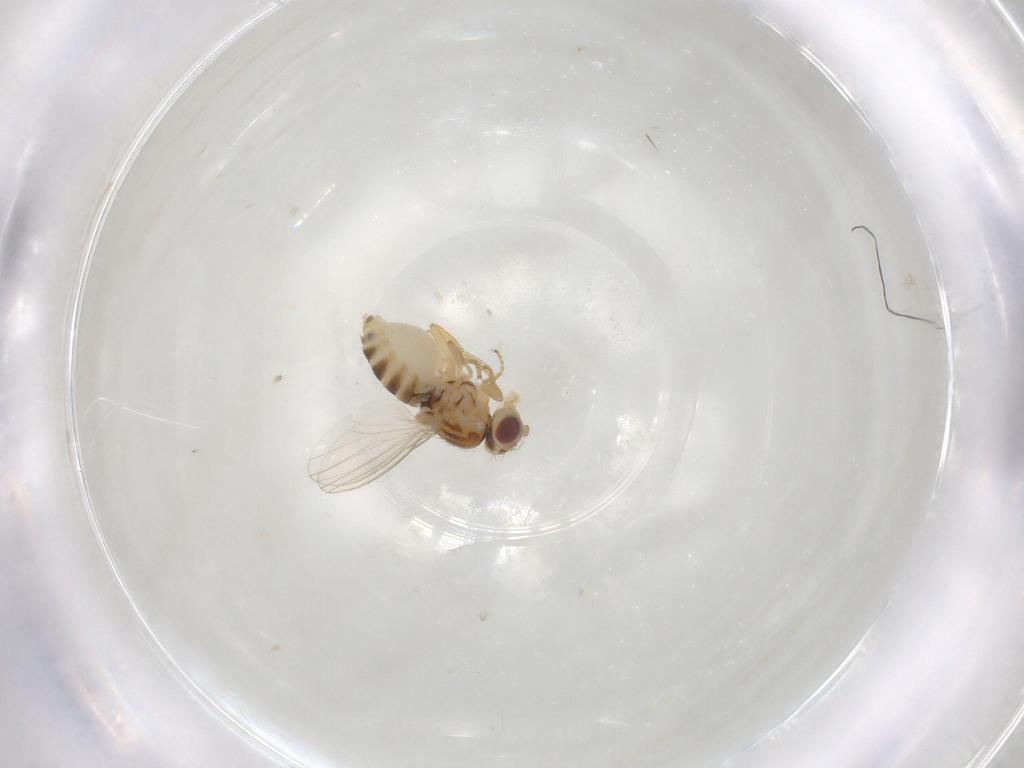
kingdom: Animalia
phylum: Arthropoda
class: Insecta
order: Diptera
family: Chyromyidae
